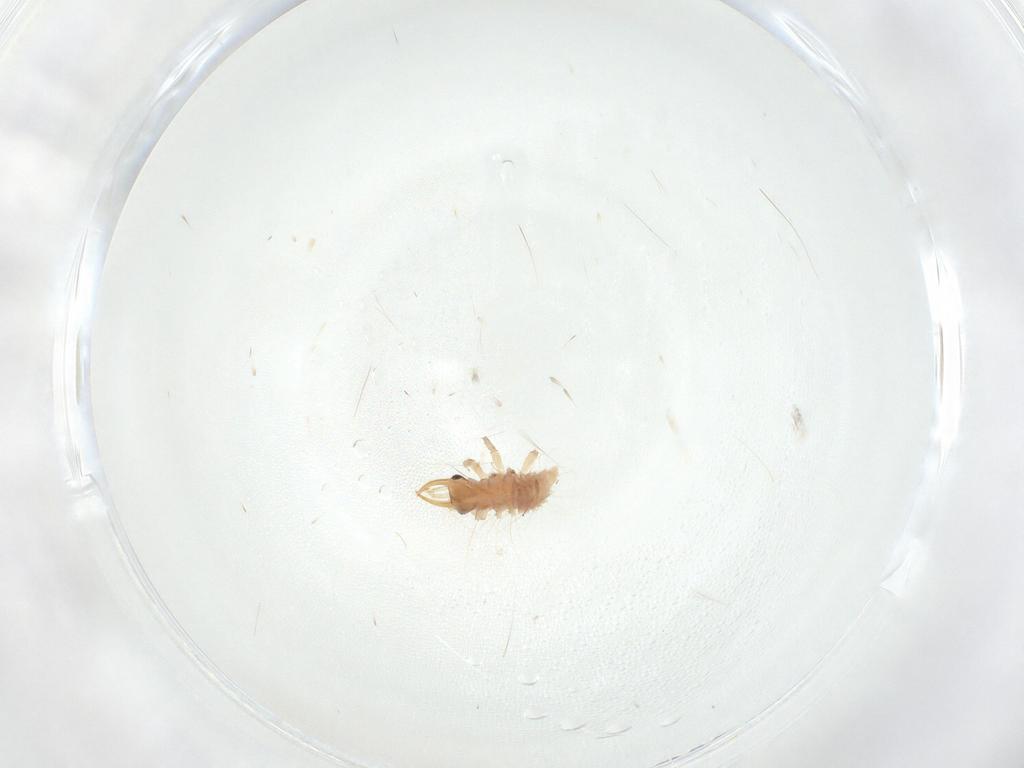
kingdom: Animalia
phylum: Arthropoda
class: Insecta
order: Neuroptera
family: Chrysopidae
